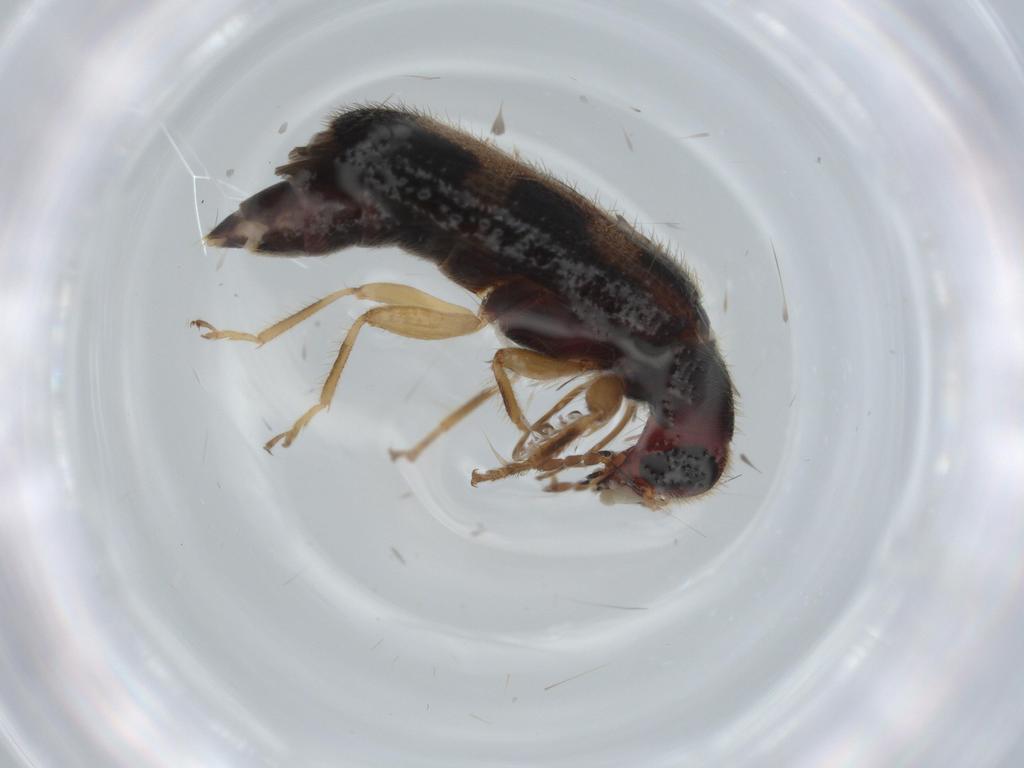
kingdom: Animalia
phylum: Arthropoda
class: Insecta
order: Coleoptera
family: Cleridae
